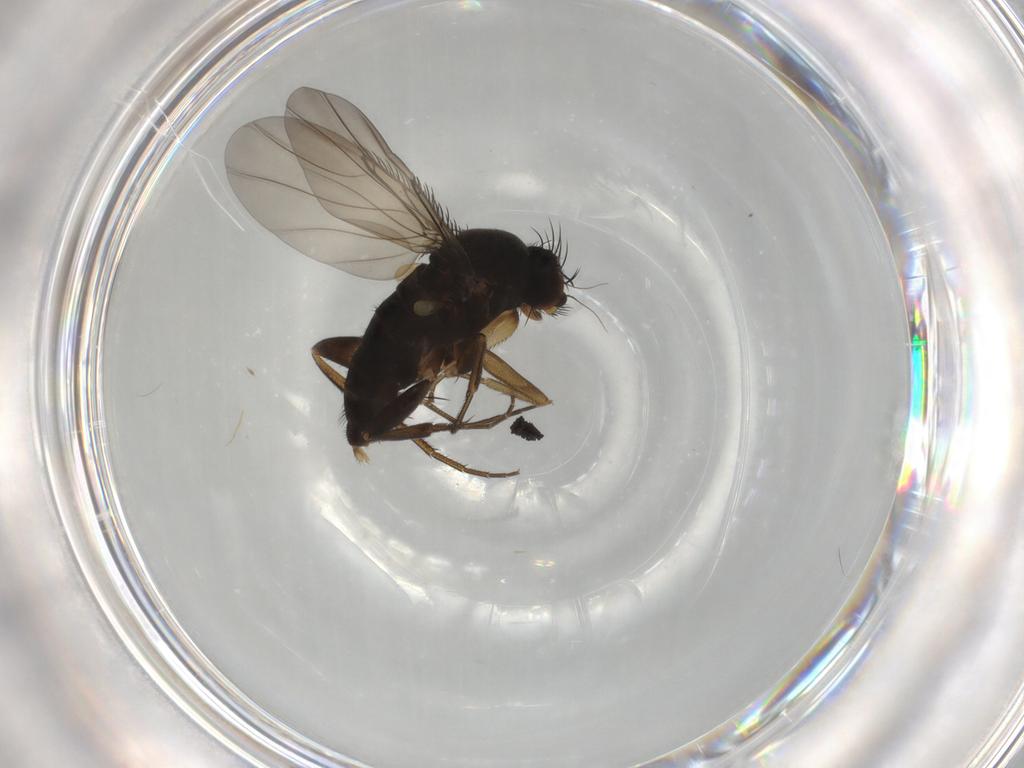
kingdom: Animalia
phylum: Arthropoda
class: Insecta
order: Diptera
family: Phoridae
